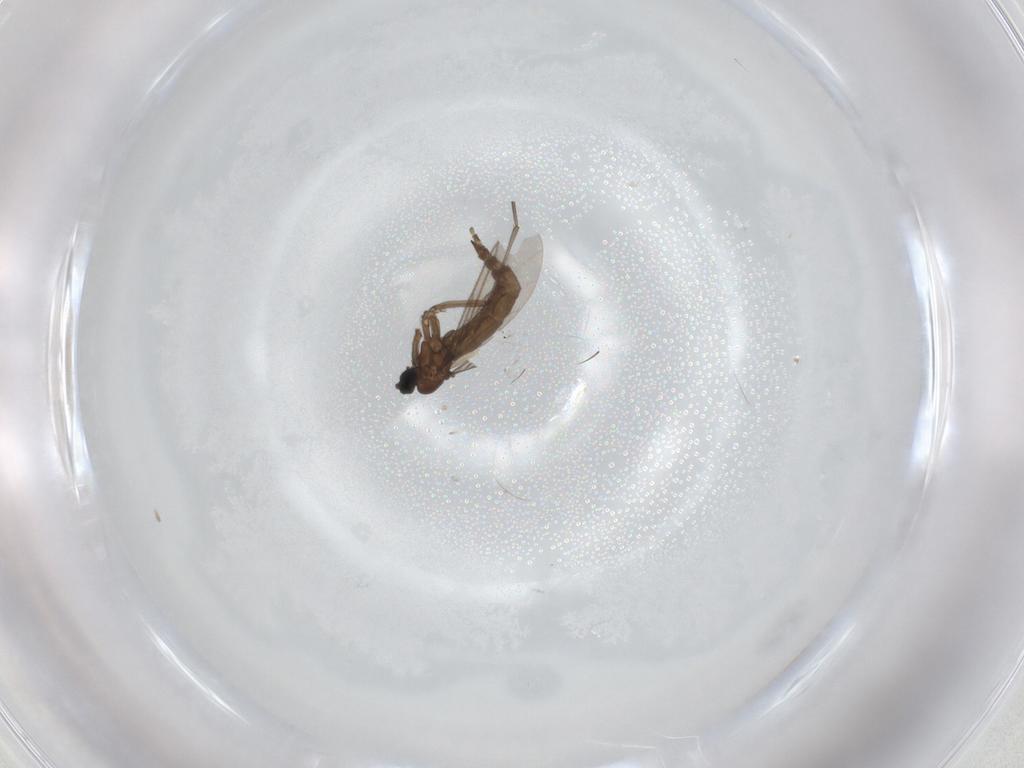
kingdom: Animalia
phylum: Arthropoda
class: Insecta
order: Diptera
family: Sciaridae
